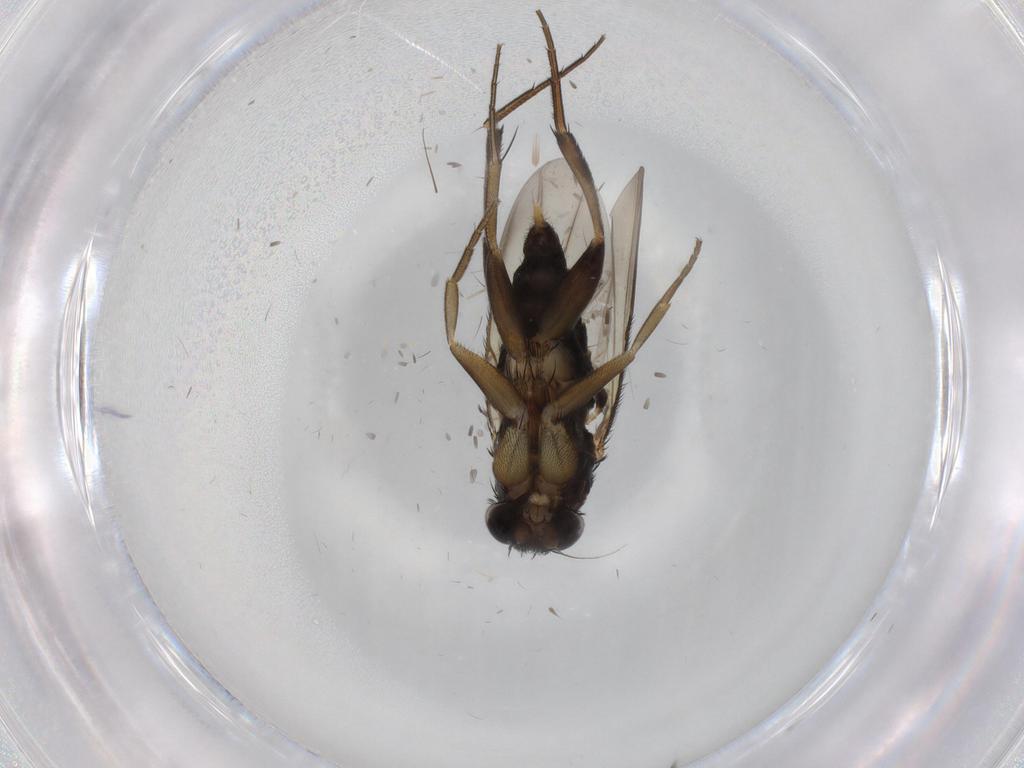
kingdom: Animalia
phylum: Arthropoda
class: Insecta
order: Diptera
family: Phoridae
